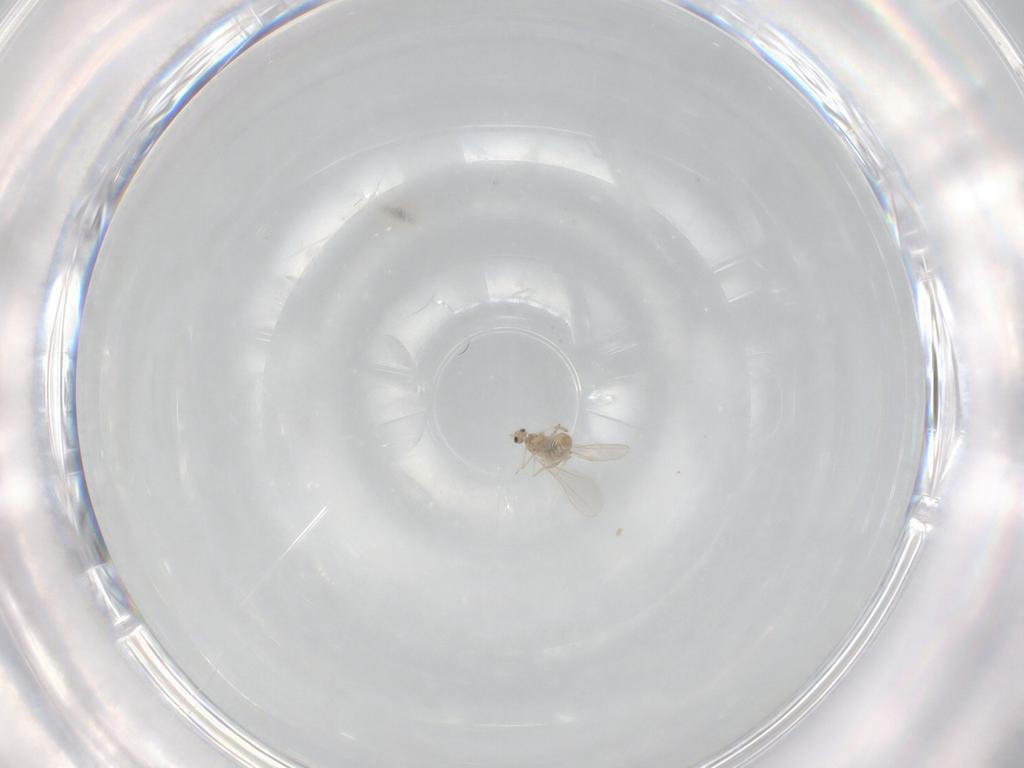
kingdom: Animalia
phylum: Arthropoda
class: Insecta
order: Diptera
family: Cecidomyiidae
